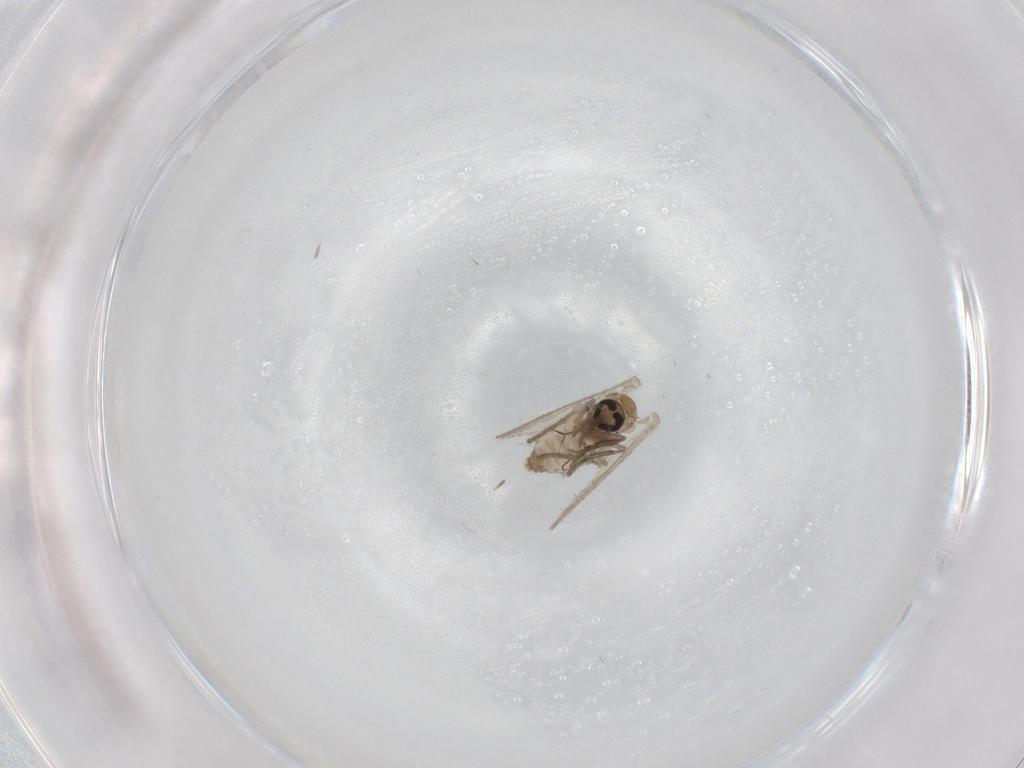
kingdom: Animalia
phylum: Arthropoda
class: Insecta
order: Diptera
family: Psychodidae
